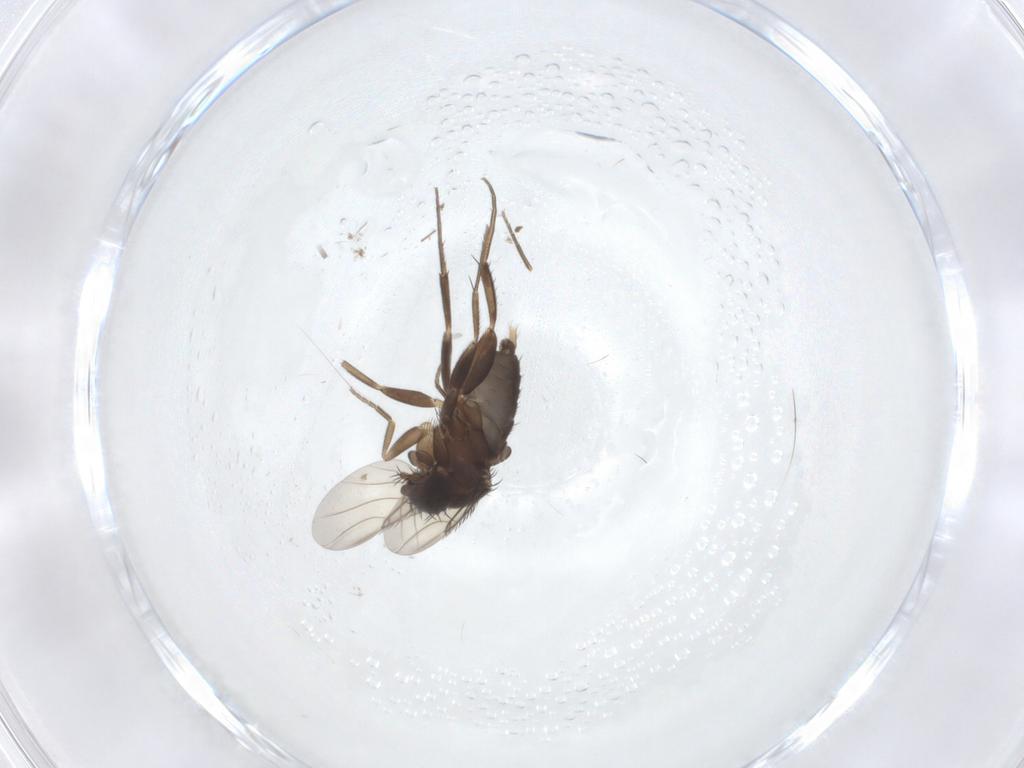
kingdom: Animalia
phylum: Arthropoda
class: Insecta
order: Diptera
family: Phoridae
